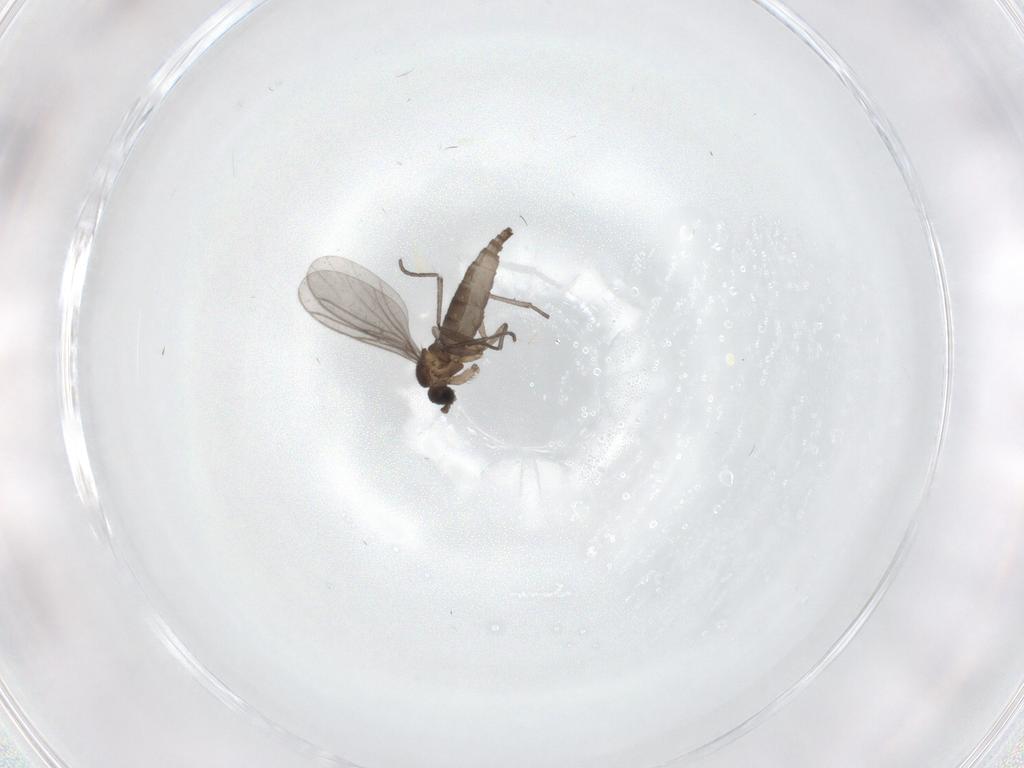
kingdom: Animalia
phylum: Arthropoda
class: Insecta
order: Diptera
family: Sciaridae
